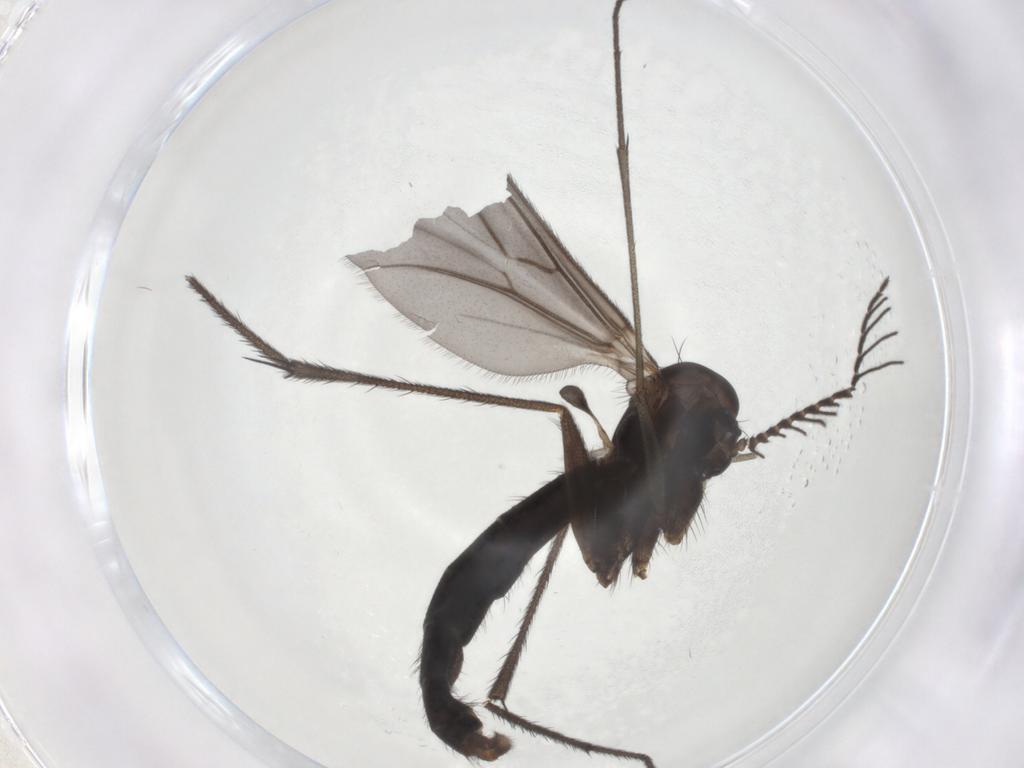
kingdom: Animalia
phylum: Arthropoda
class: Insecta
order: Diptera
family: Ditomyiidae
